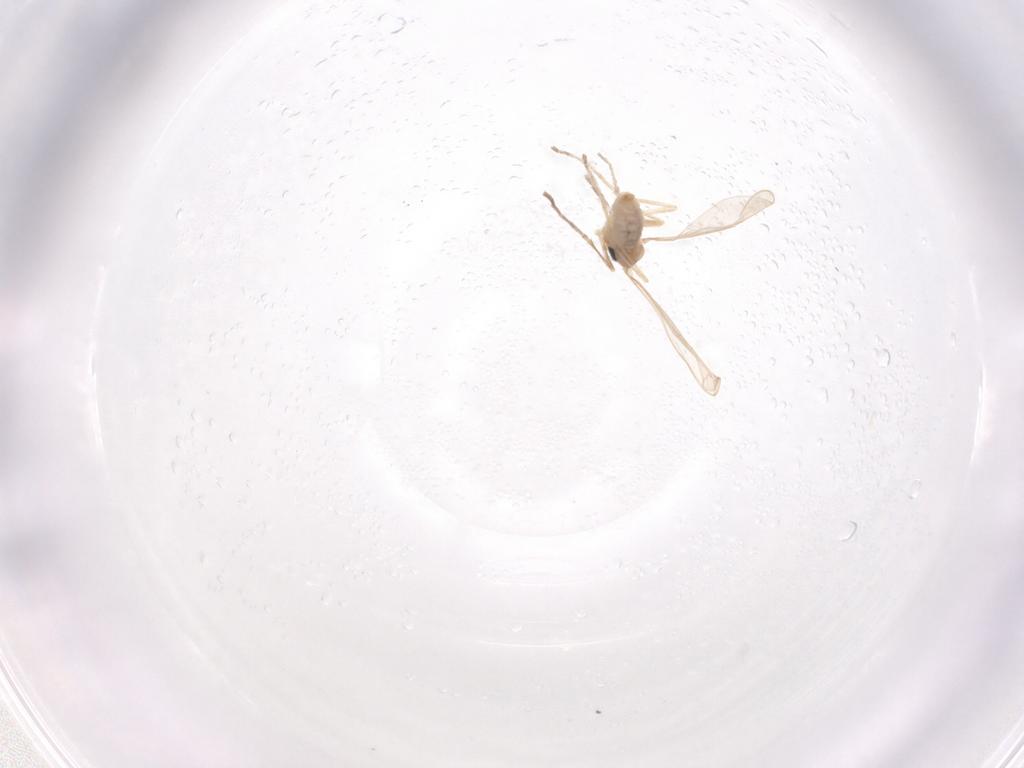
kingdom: Animalia
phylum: Arthropoda
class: Insecta
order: Diptera
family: Cecidomyiidae
